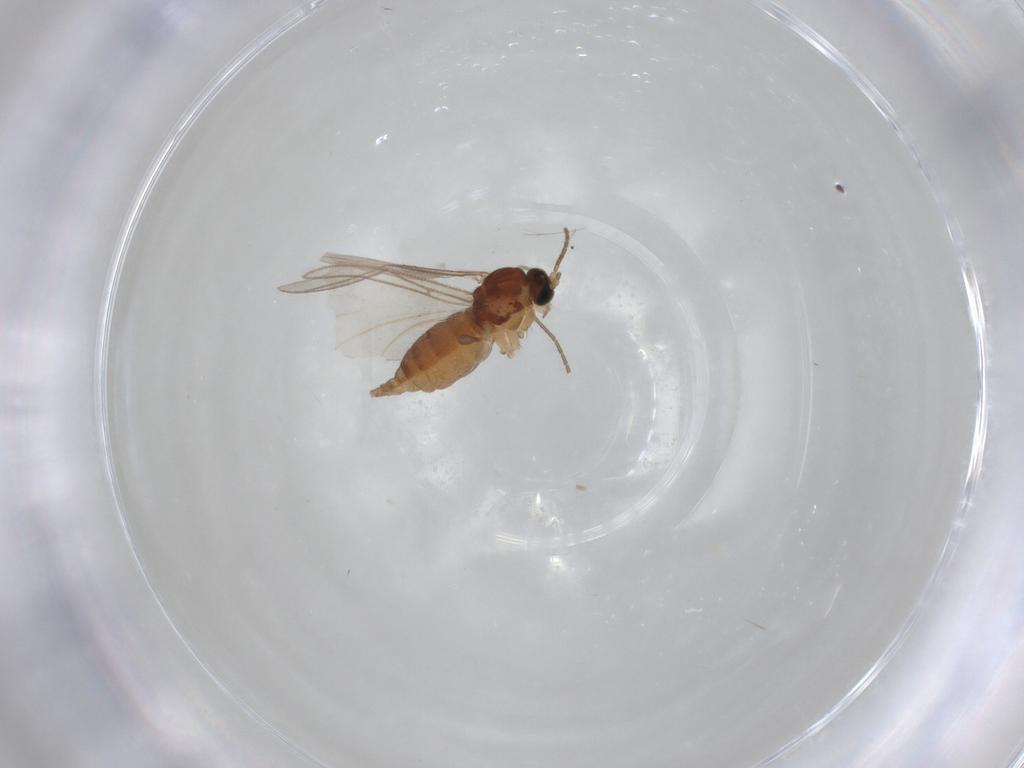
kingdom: Animalia
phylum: Arthropoda
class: Insecta
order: Diptera
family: Sciaridae
